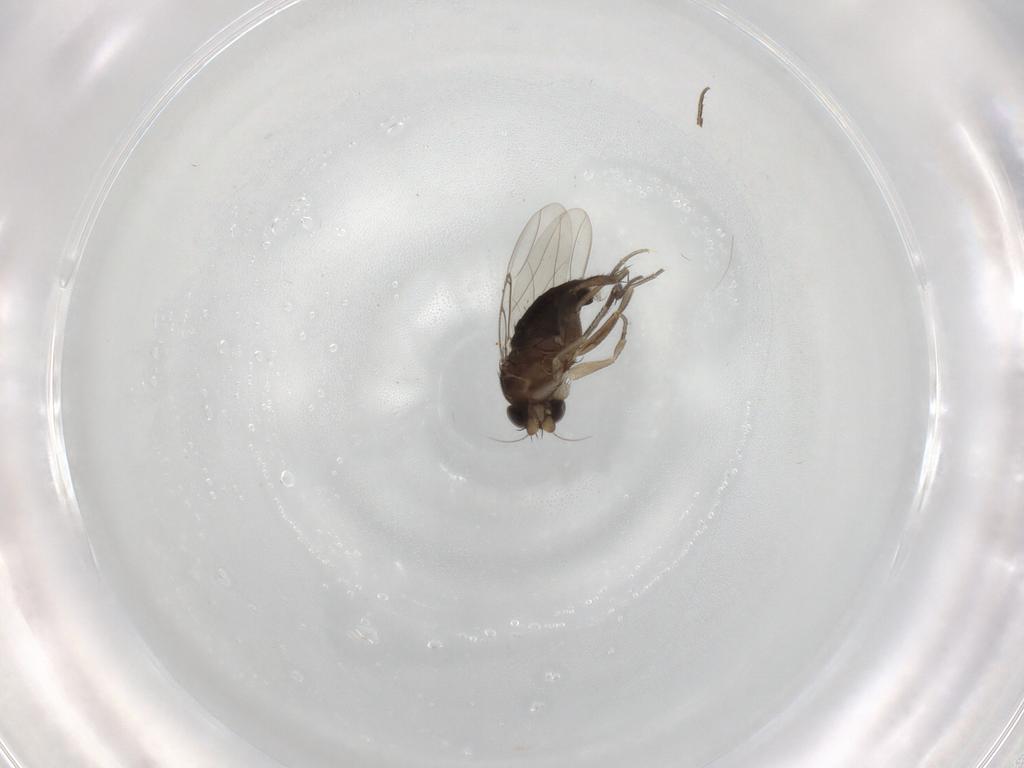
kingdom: Animalia
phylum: Arthropoda
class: Insecta
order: Diptera
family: Phoridae
